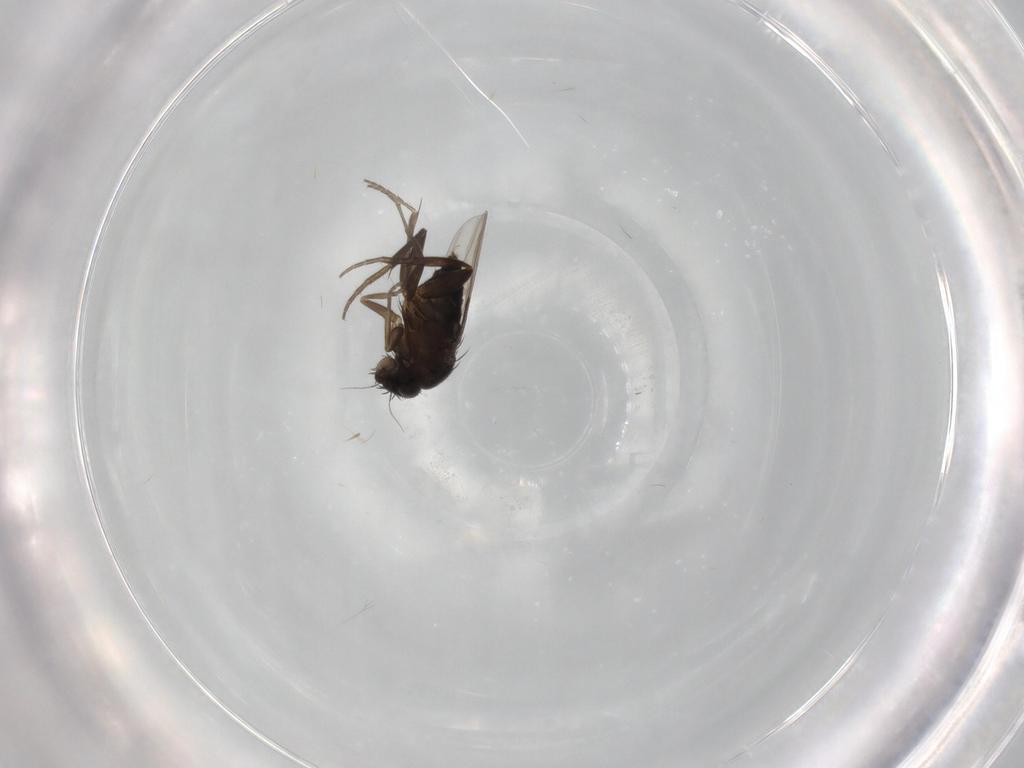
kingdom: Animalia
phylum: Arthropoda
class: Insecta
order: Diptera
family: Phoridae
